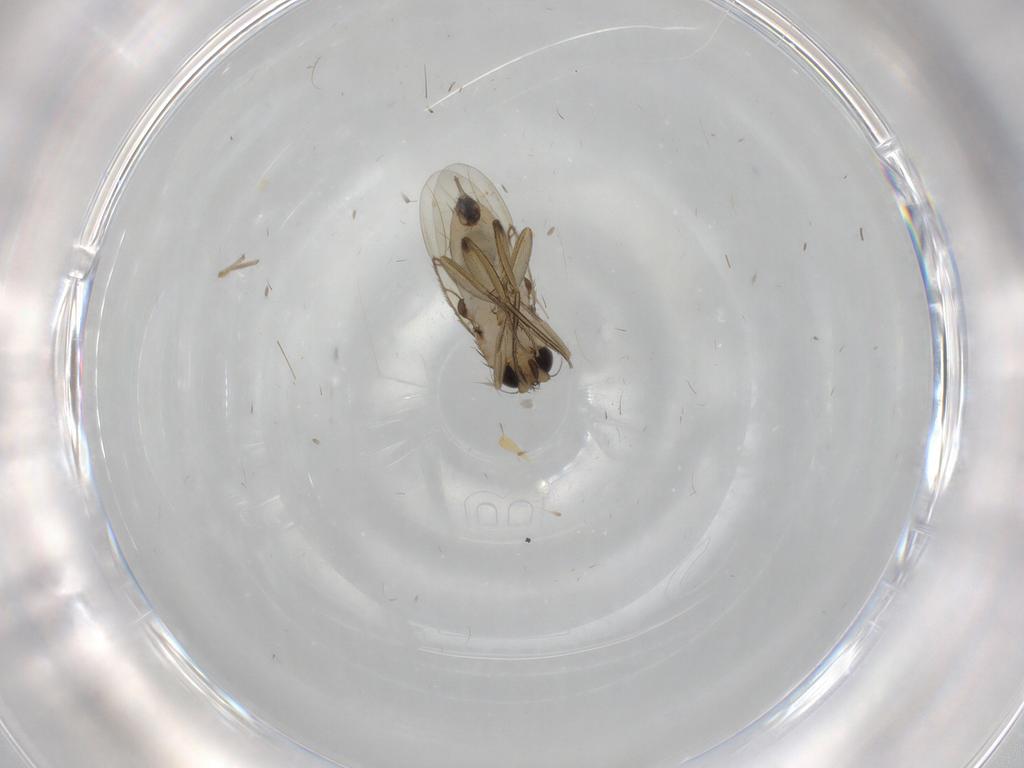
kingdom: Animalia
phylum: Arthropoda
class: Insecta
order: Diptera
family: Phoridae
